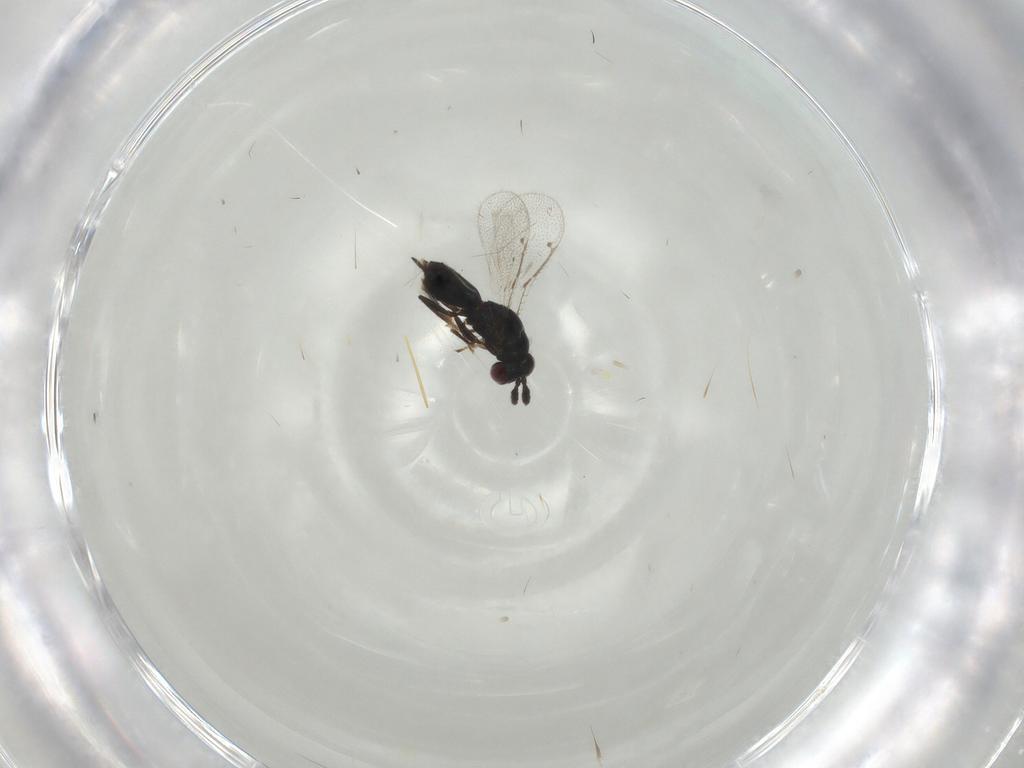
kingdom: Animalia
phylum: Arthropoda
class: Insecta
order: Hymenoptera
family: Pirenidae
